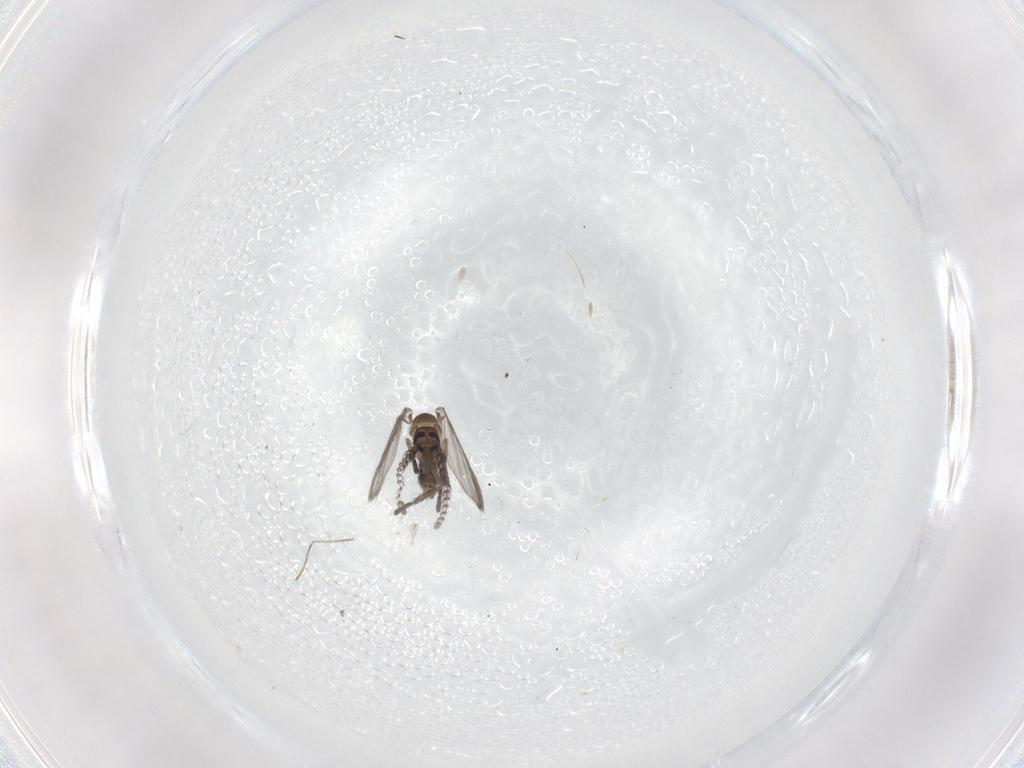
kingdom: Animalia
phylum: Arthropoda
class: Insecta
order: Diptera
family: Psychodidae
